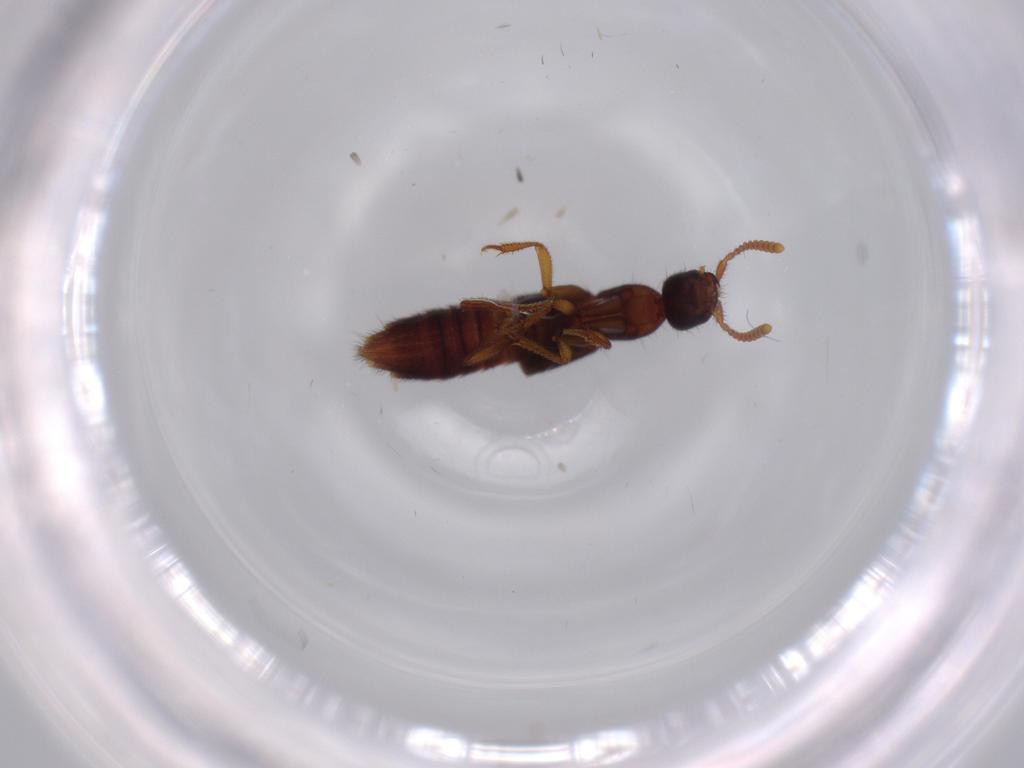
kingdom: Animalia
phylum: Arthropoda
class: Insecta
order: Coleoptera
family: Staphylinidae
